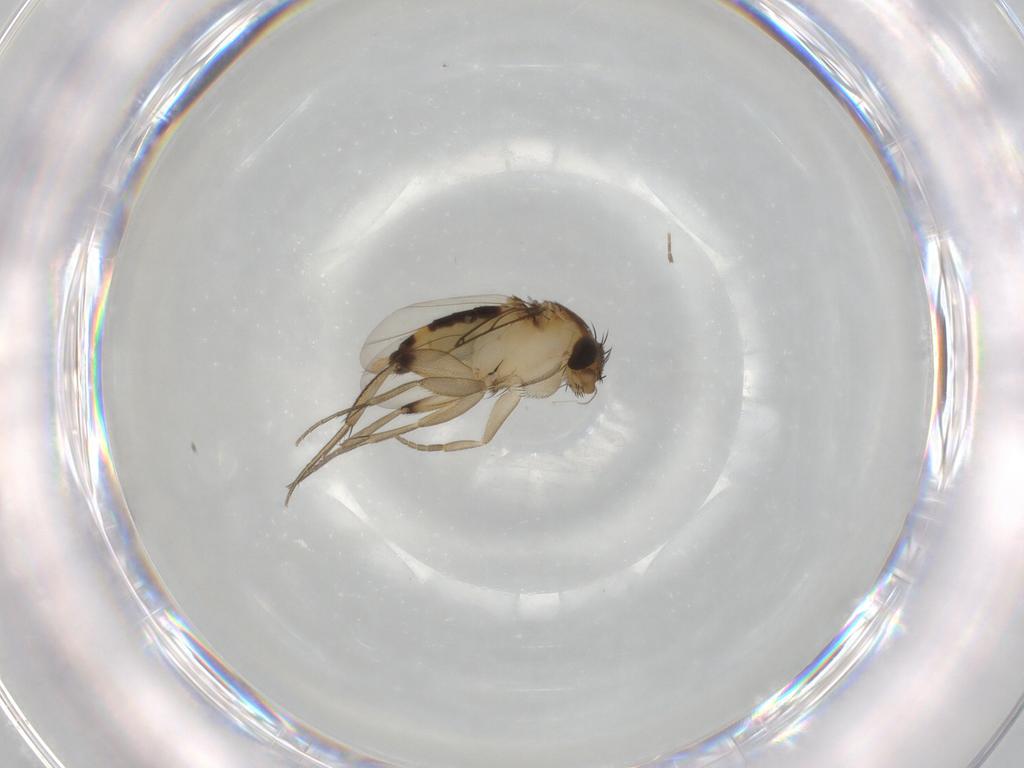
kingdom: Animalia
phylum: Arthropoda
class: Insecta
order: Diptera
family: Phoridae
